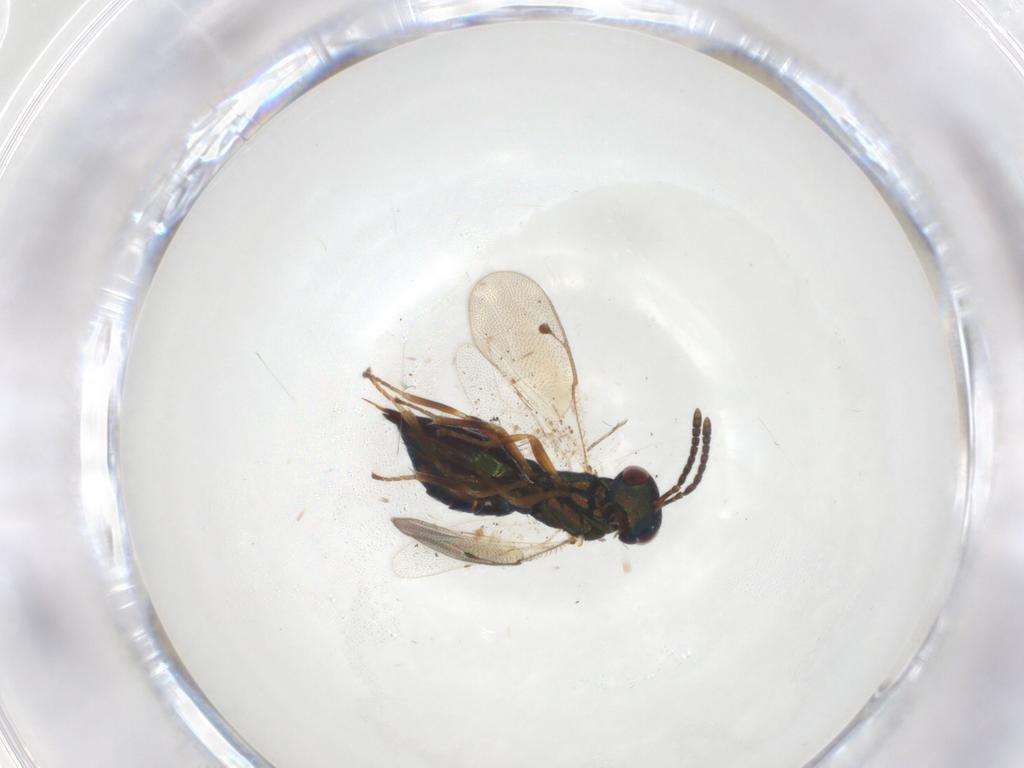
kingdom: Animalia
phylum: Arthropoda
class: Insecta
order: Hymenoptera
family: Pteromalidae
